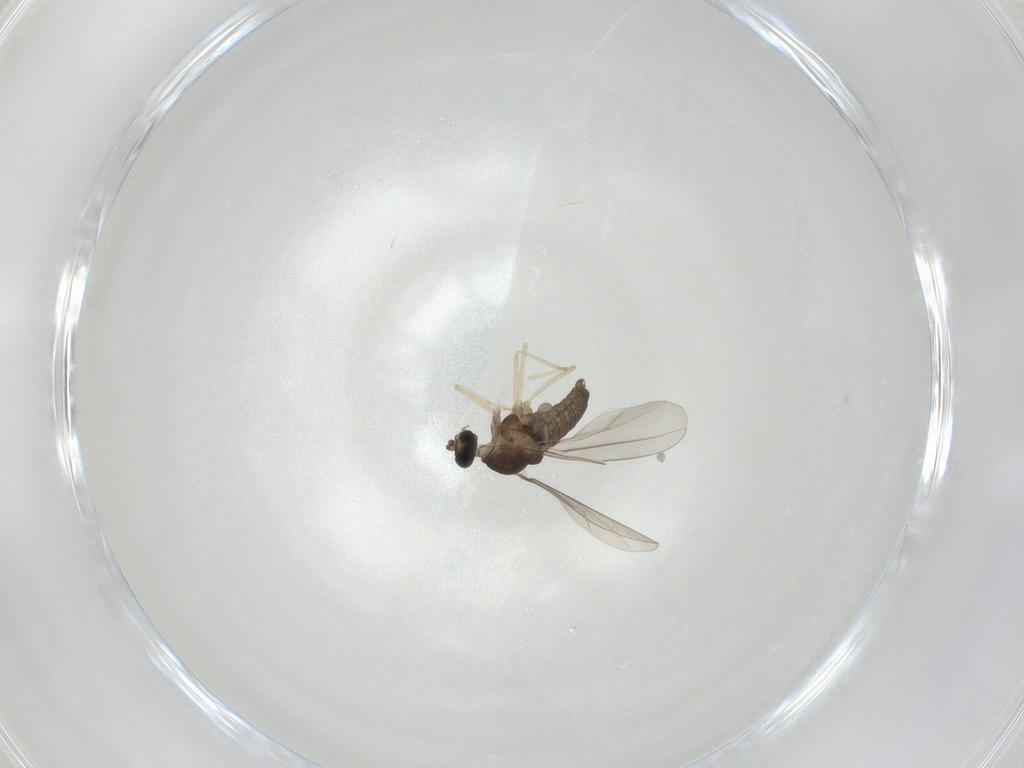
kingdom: Animalia
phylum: Arthropoda
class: Insecta
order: Diptera
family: Cecidomyiidae
